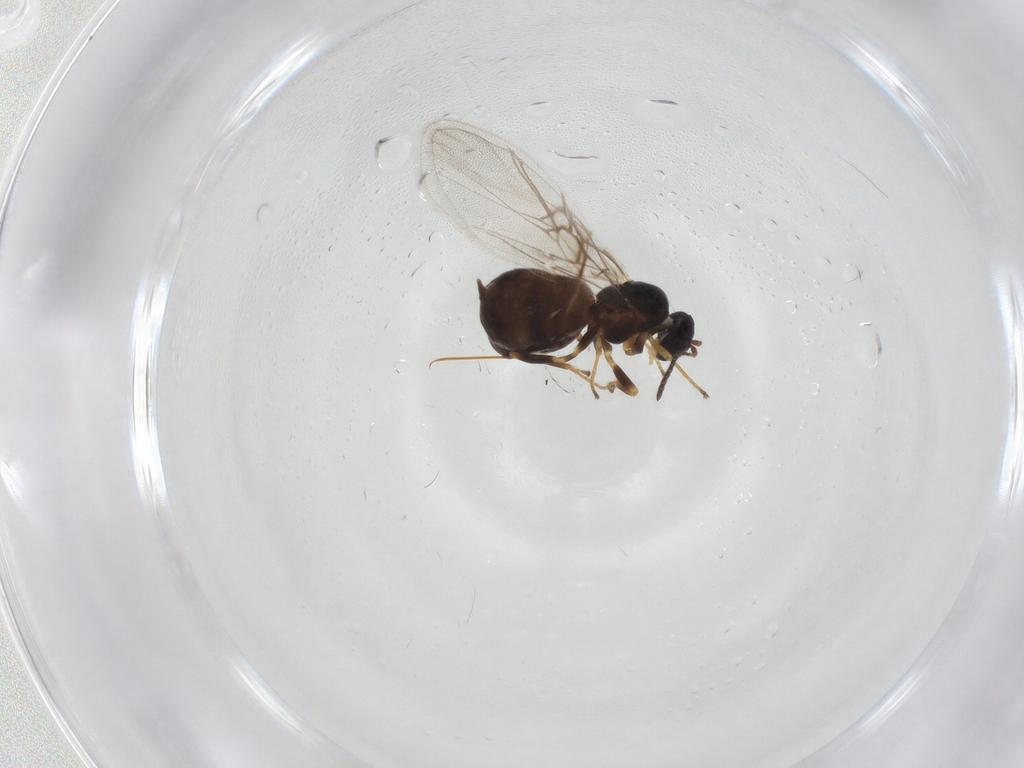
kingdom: Animalia
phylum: Arthropoda
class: Insecta
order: Hymenoptera
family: Cynipidae
